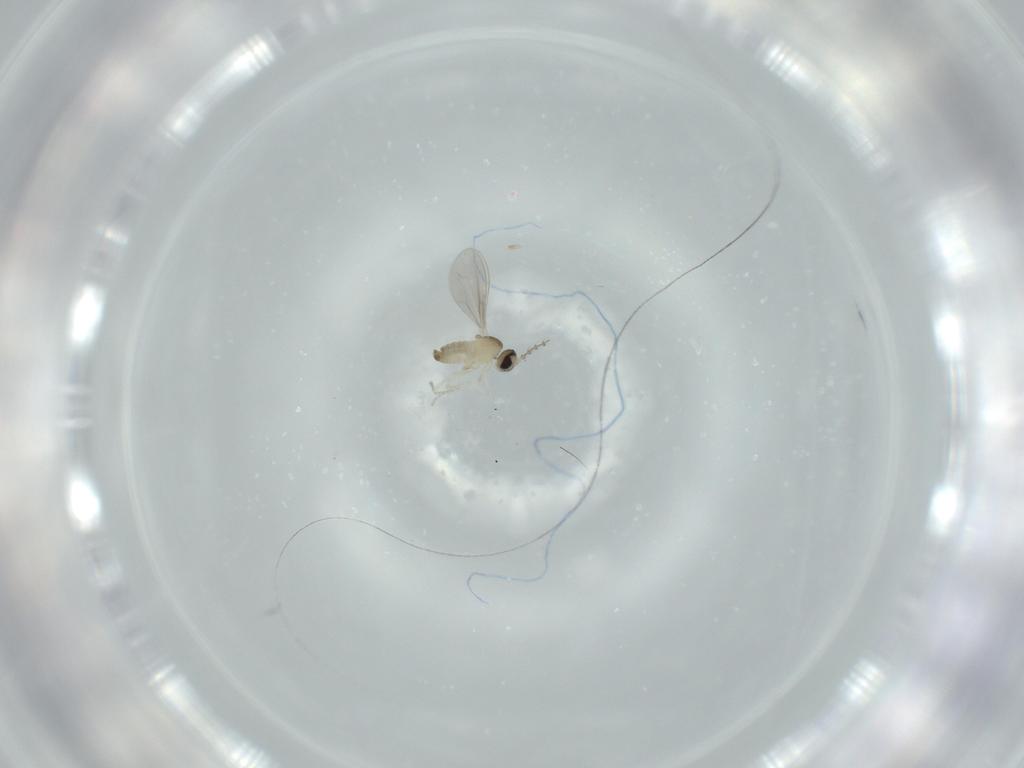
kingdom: Animalia
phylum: Arthropoda
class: Insecta
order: Diptera
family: Cecidomyiidae
